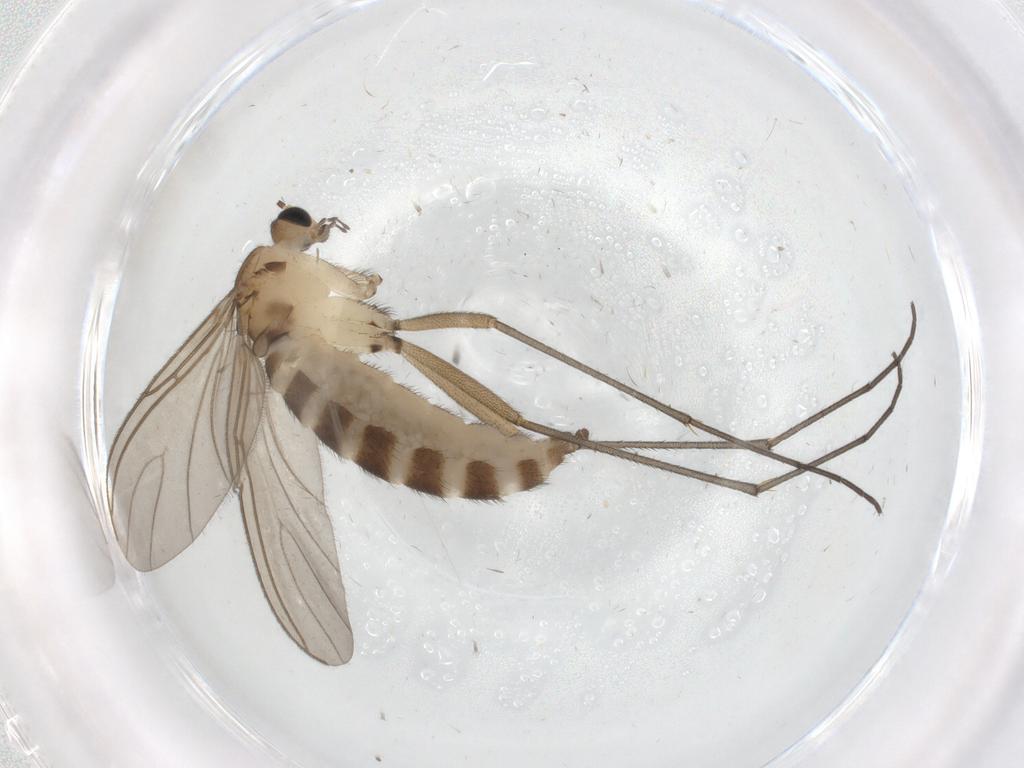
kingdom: Animalia
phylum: Arthropoda
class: Insecta
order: Diptera
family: Sciaridae
